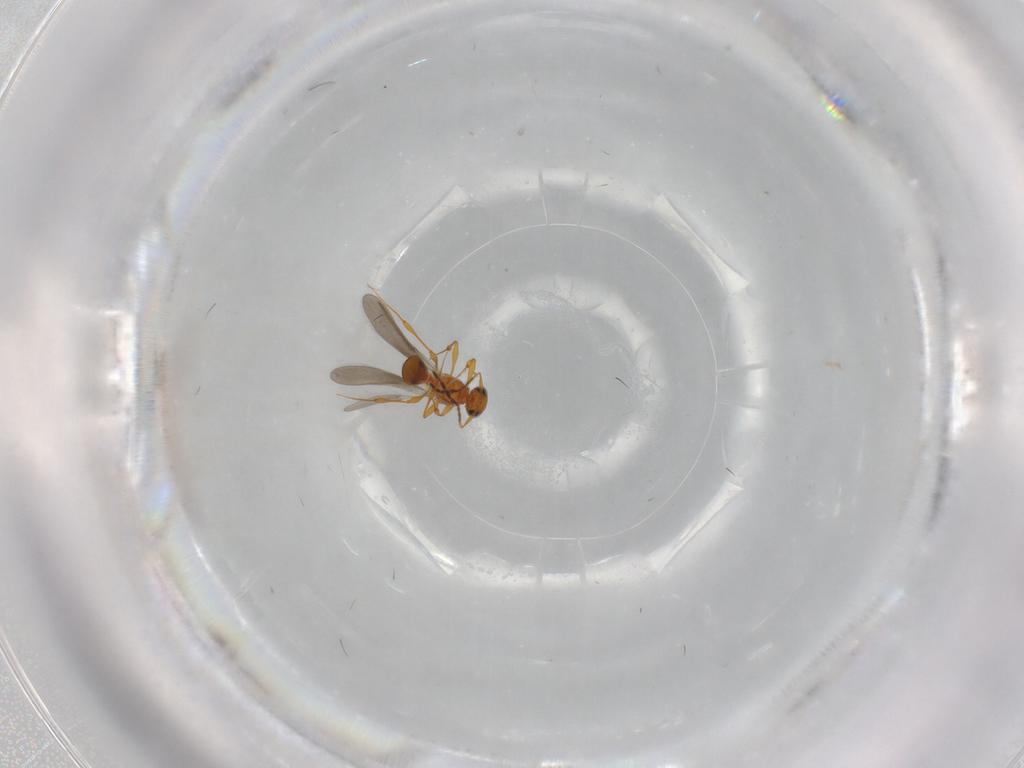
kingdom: Animalia
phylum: Arthropoda
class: Insecta
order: Hymenoptera
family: Platygastridae
